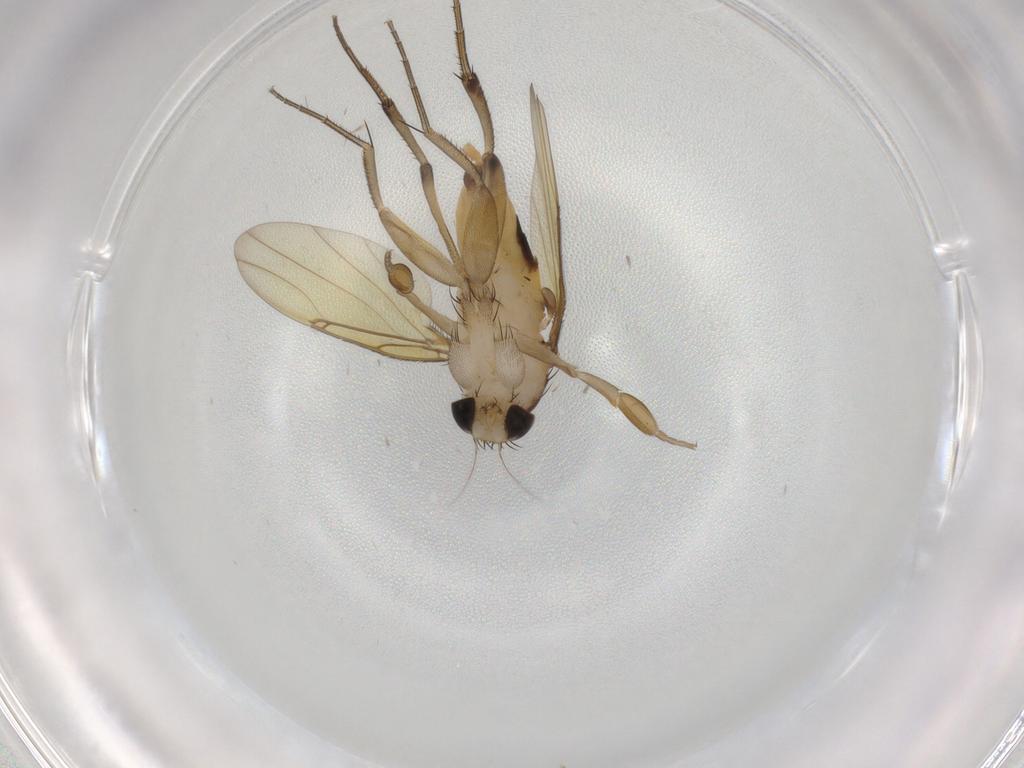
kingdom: Animalia
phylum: Arthropoda
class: Insecta
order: Diptera
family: Phoridae
